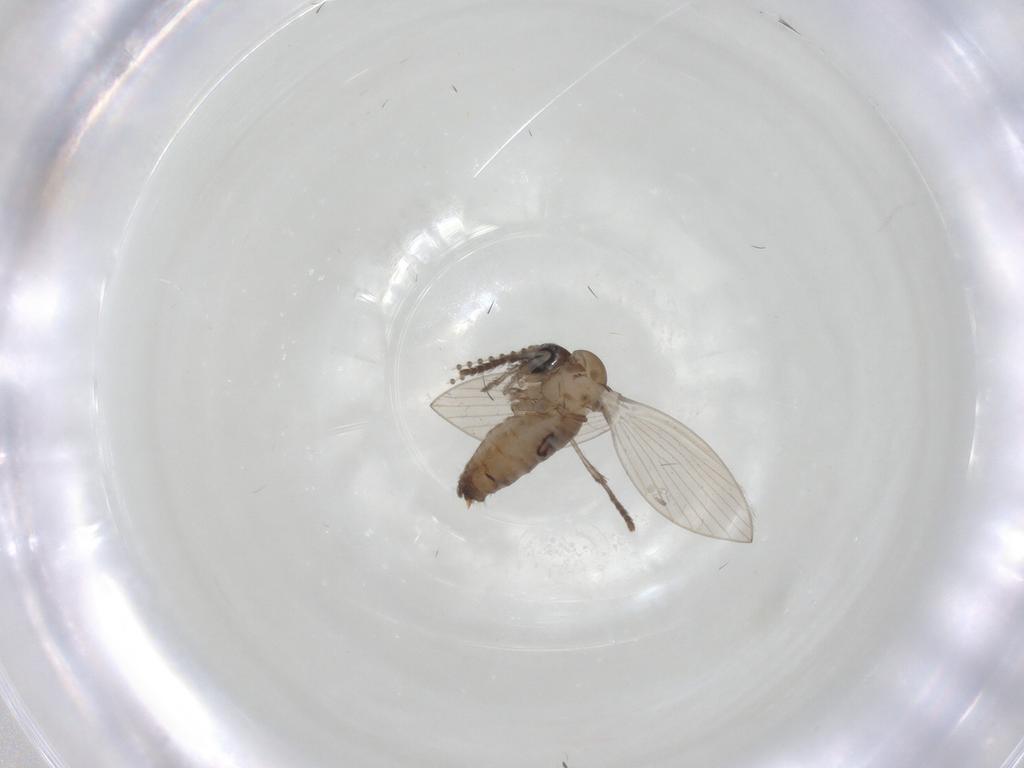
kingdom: Animalia
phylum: Arthropoda
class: Insecta
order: Diptera
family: Psychodidae
